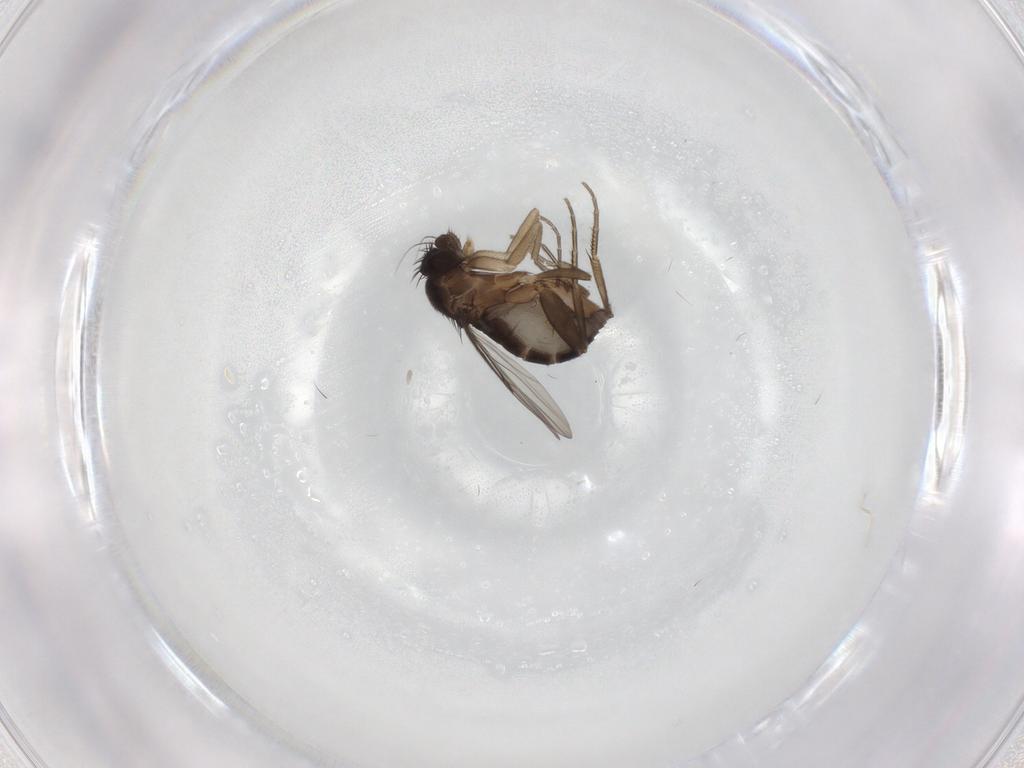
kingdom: Animalia
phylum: Arthropoda
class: Insecta
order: Diptera
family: Phoridae
